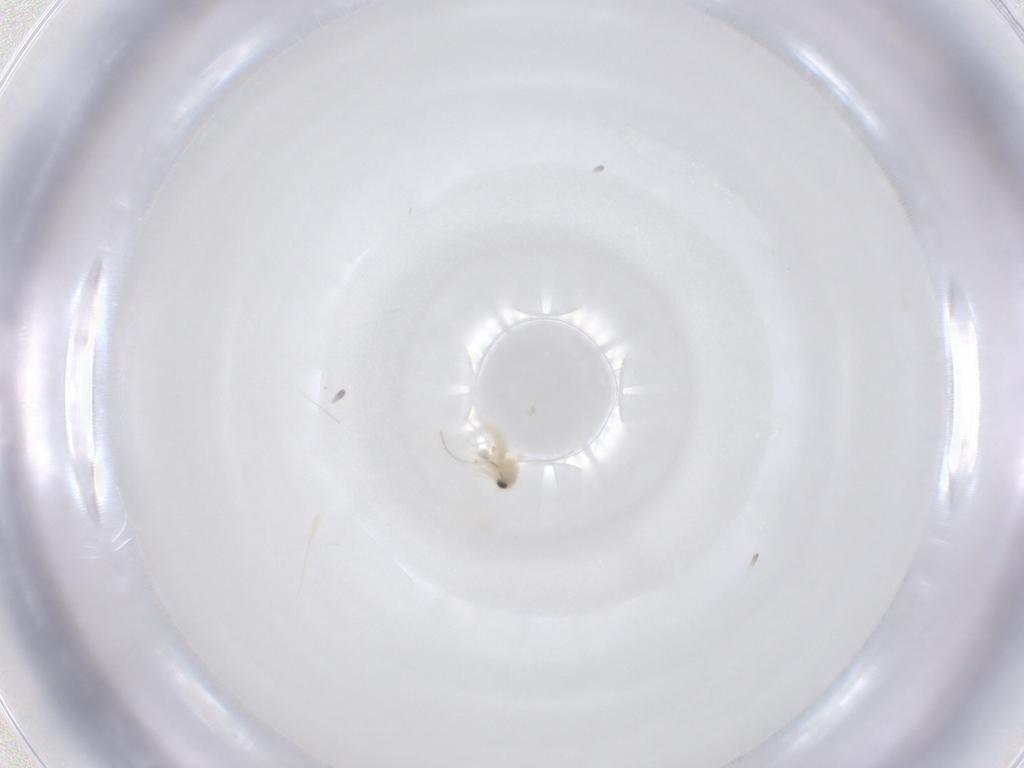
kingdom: Animalia
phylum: Arthropoda
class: Insecta
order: Hemiptera
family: Aleyrodidae
